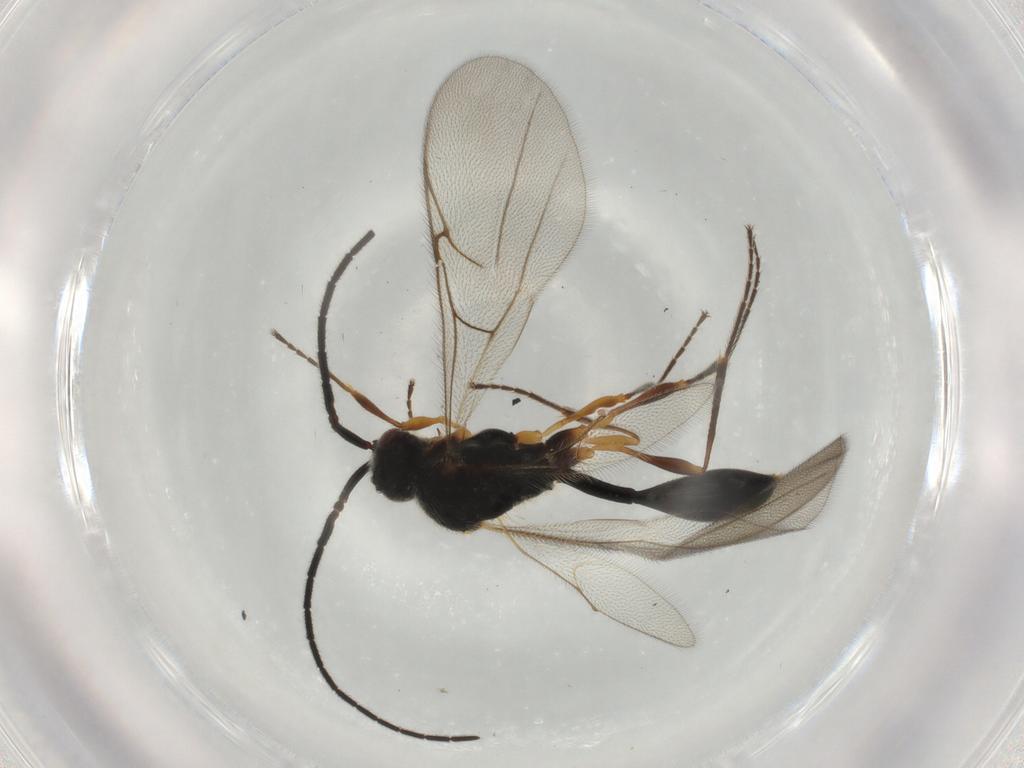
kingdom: Animalia
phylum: Arthropoda
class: Insecta
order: Hymenoptera
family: Diapriidae
